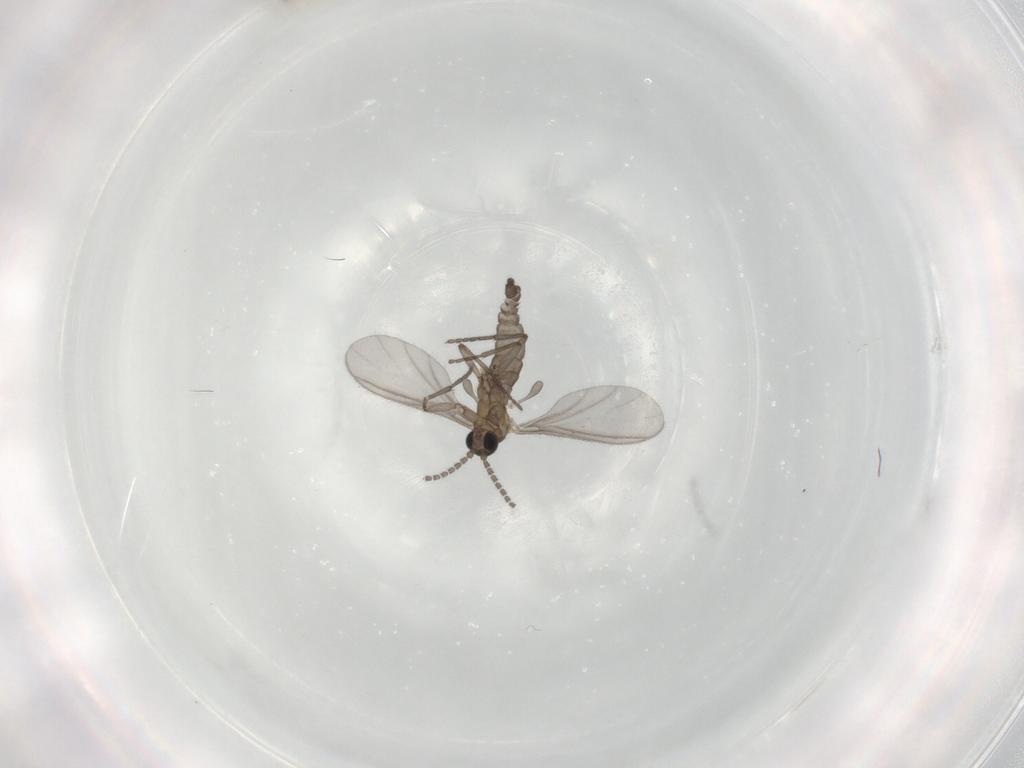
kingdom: Animalia
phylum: Arthropoda
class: Insecta
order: Diptera
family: Sciaridae
